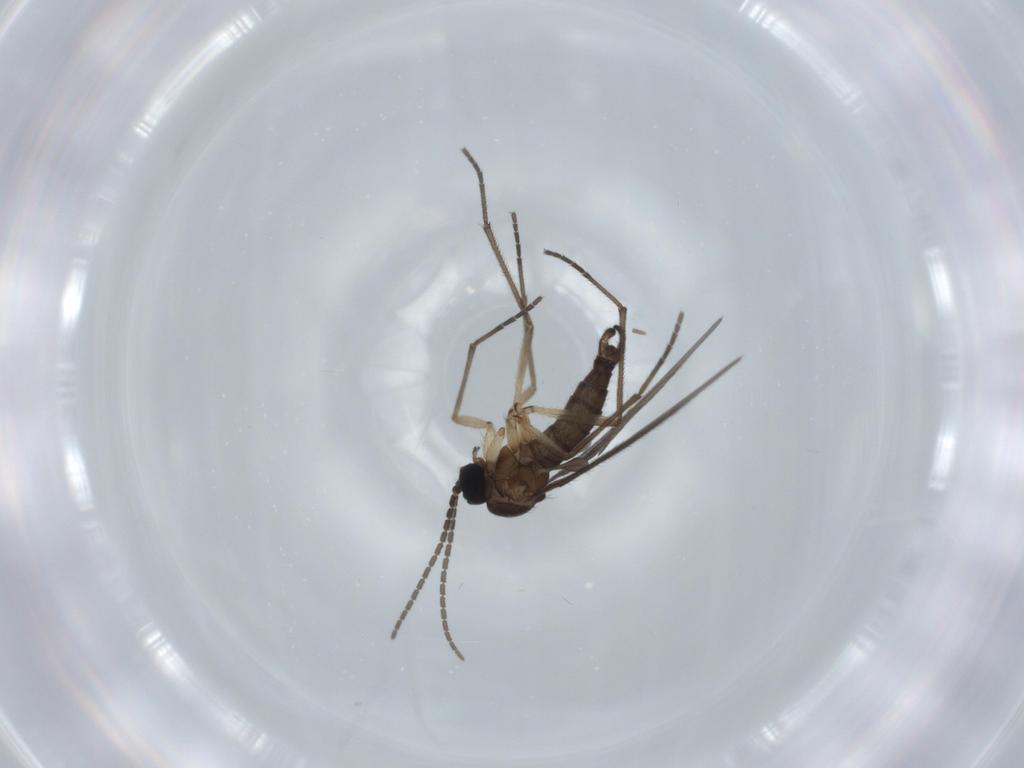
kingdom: Animalia
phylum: Arthropoda
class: Insecta
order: Diptera
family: Sciaridae
